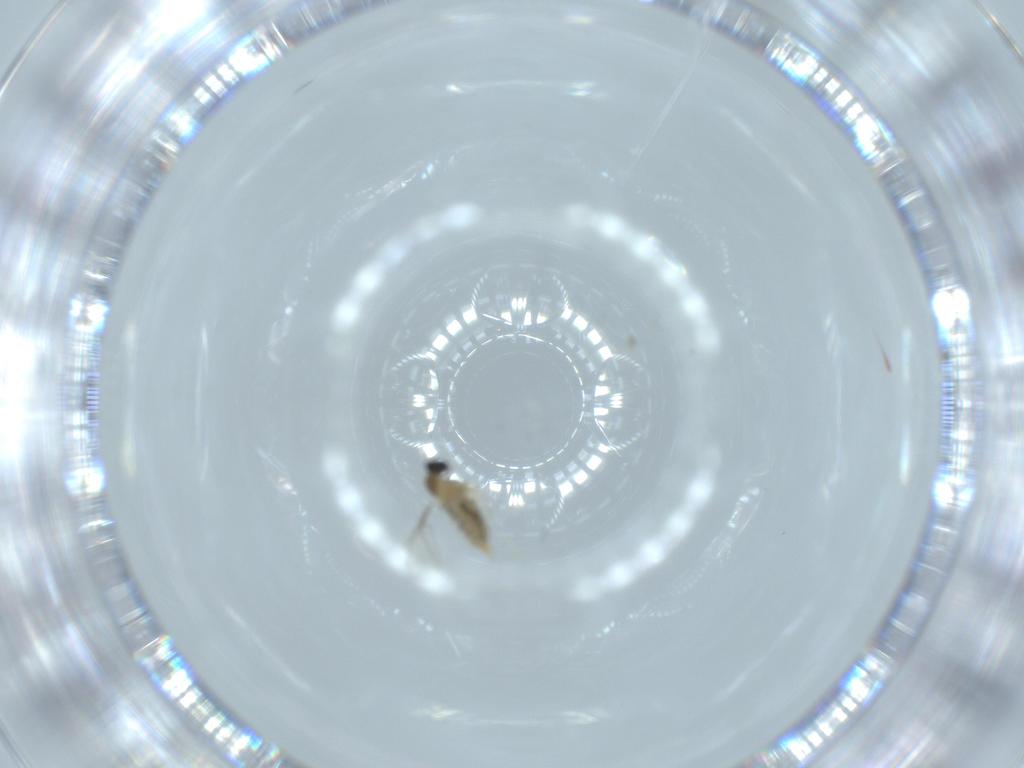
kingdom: Animalia
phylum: Arthropoda
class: Insecta
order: Diptera
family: Cecidomyiidae
